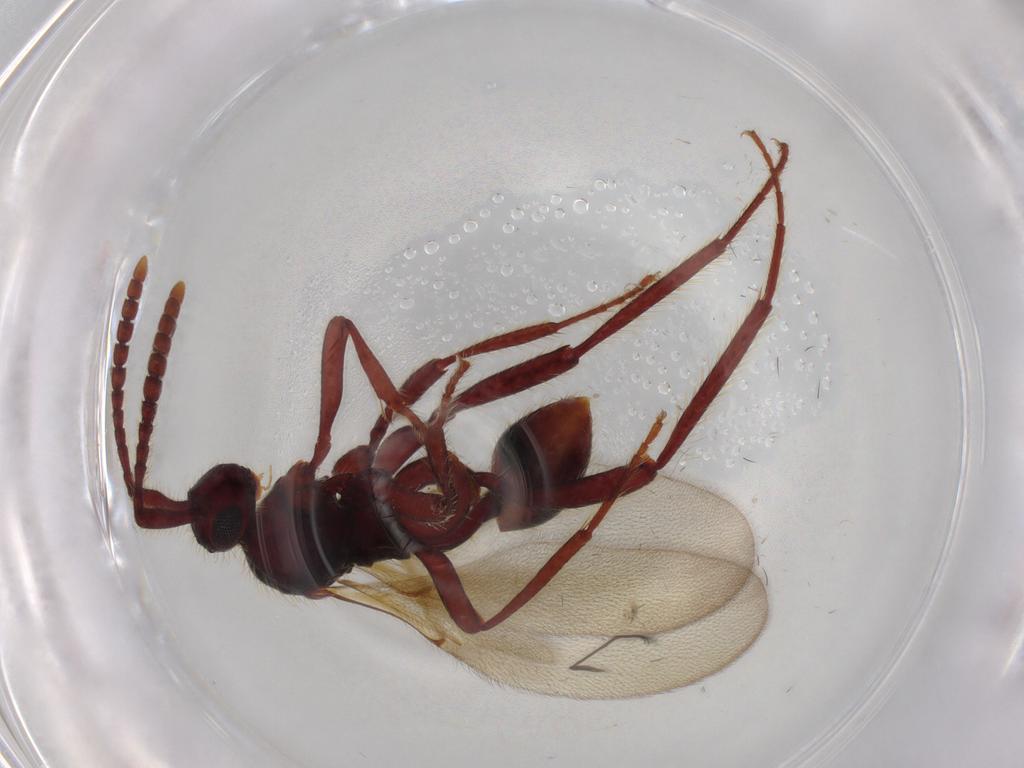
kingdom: Animalia
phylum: Arthropoda
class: Insecta
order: Hymenoptera
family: Diapriidae
